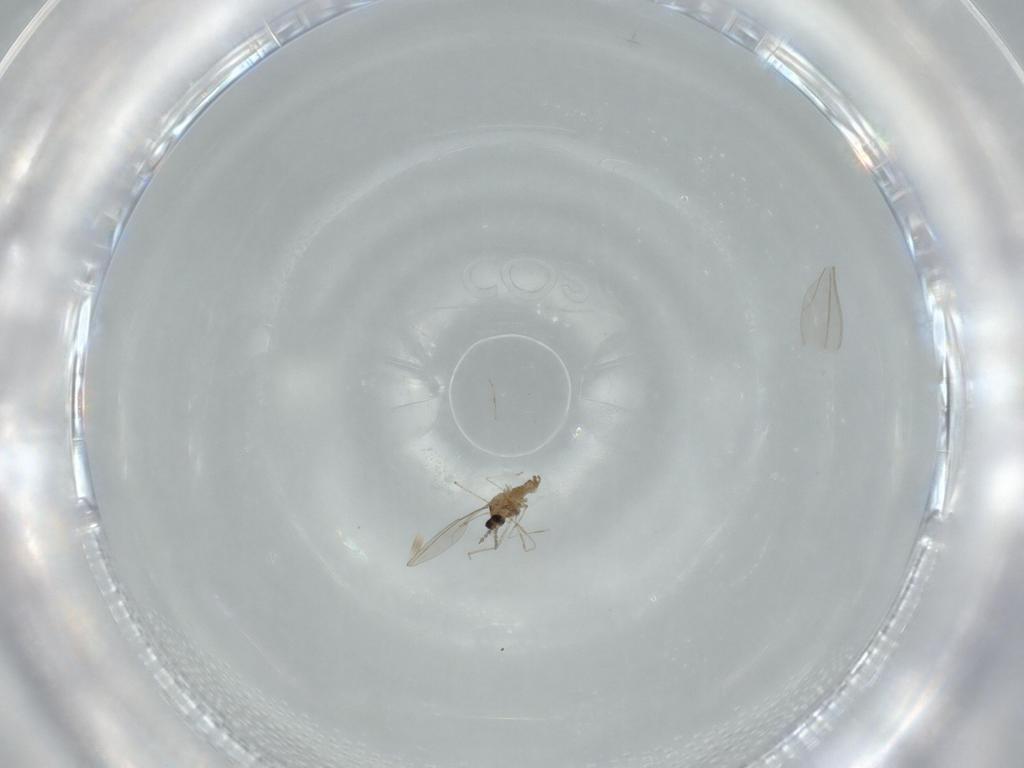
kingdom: Animalia
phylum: Arthropoda
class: Insecta
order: Diptera
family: Cecidomyiidae
